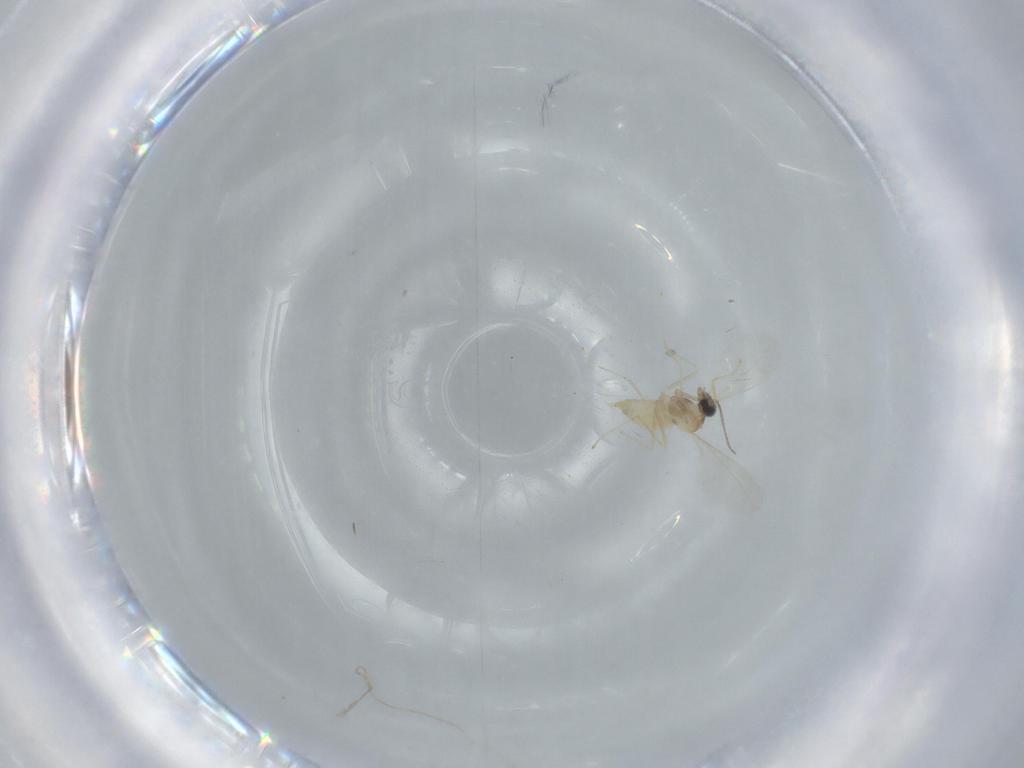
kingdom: Animalia
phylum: Arthropoda
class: Insecta
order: Diptera
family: Cecidomyiidae
